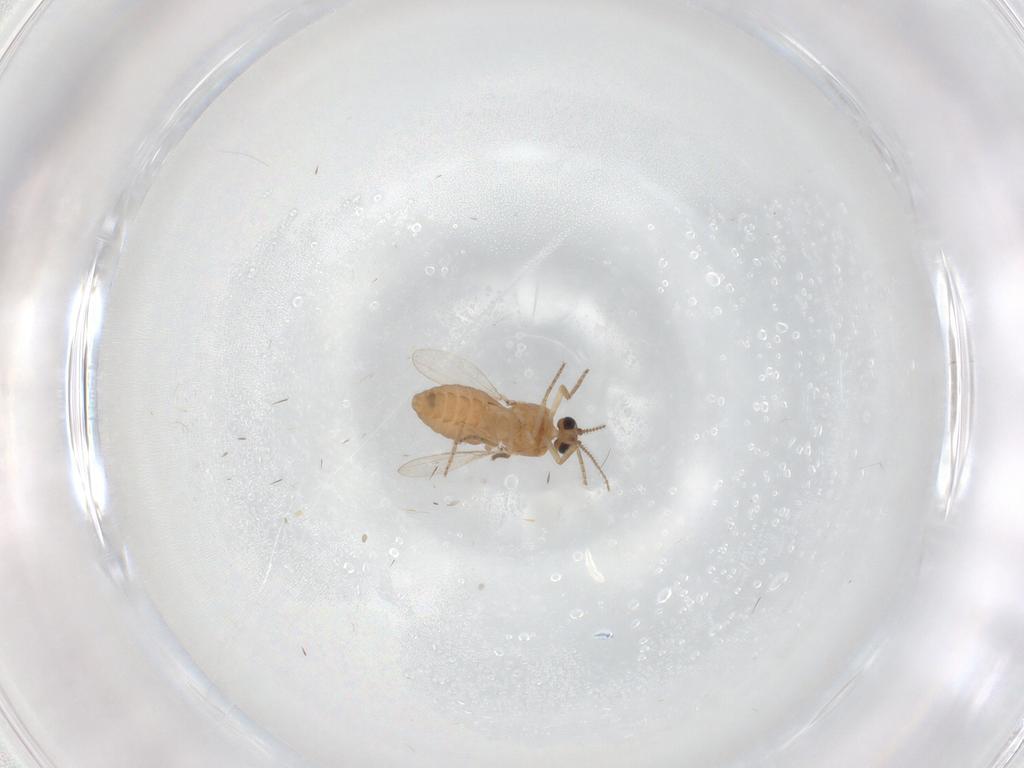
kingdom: Animalia
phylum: Arthropoda
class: Insecta
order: Diptera
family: Ceratopogonidae
